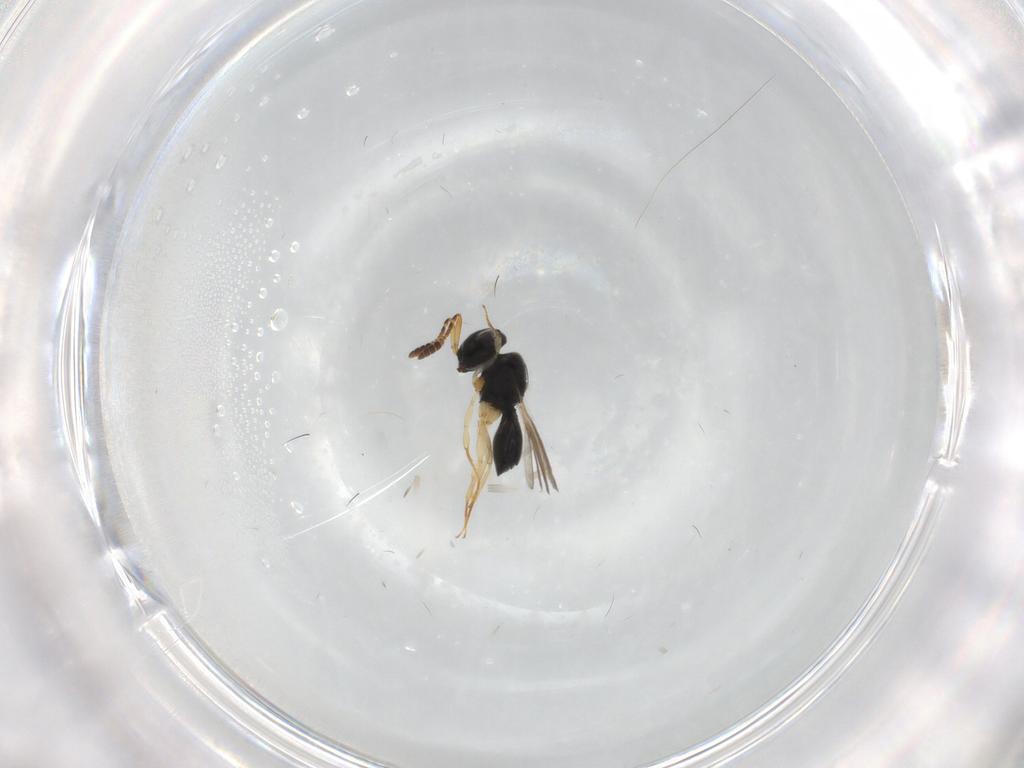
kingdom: Animalia
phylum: Arthropoda
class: Insecta
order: Hymenoptera
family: Scelionidae
